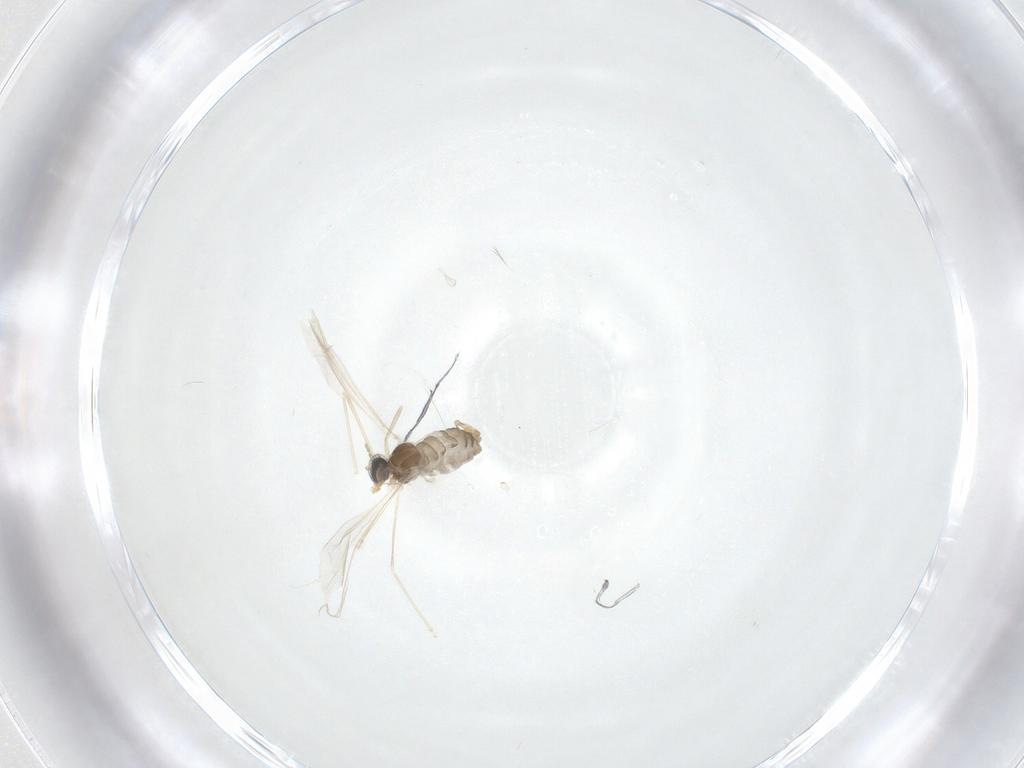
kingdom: Animalia
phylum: Arthropoda
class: Insecta
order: Diptera
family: Cecidomyiidae
